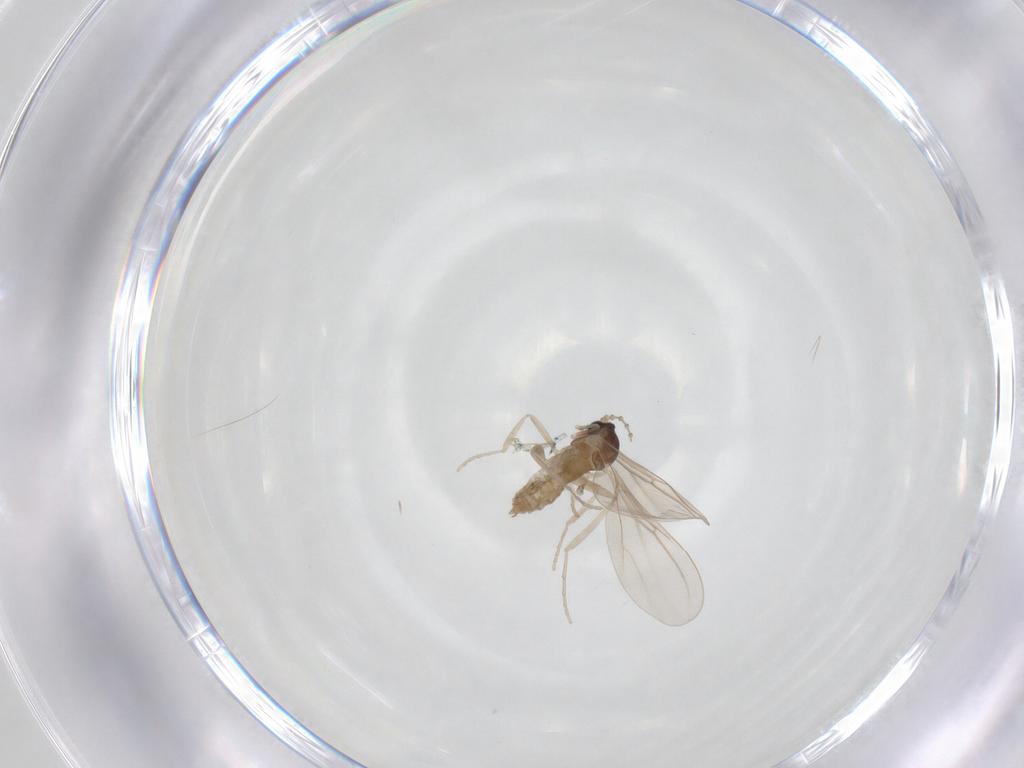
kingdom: Animalia
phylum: Arthropoda
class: Insecta
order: Diptera
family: Cecidomyiidae
